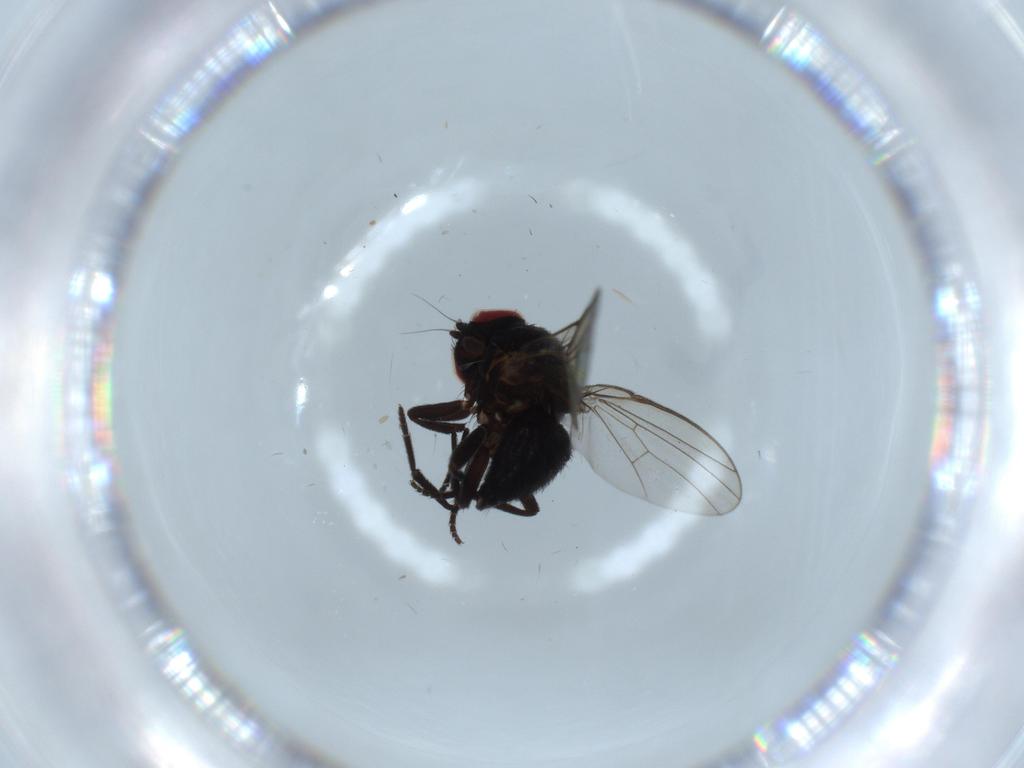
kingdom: Animalia
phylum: Arthropoda
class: Insecta
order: Diptera
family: Agromyzidae
